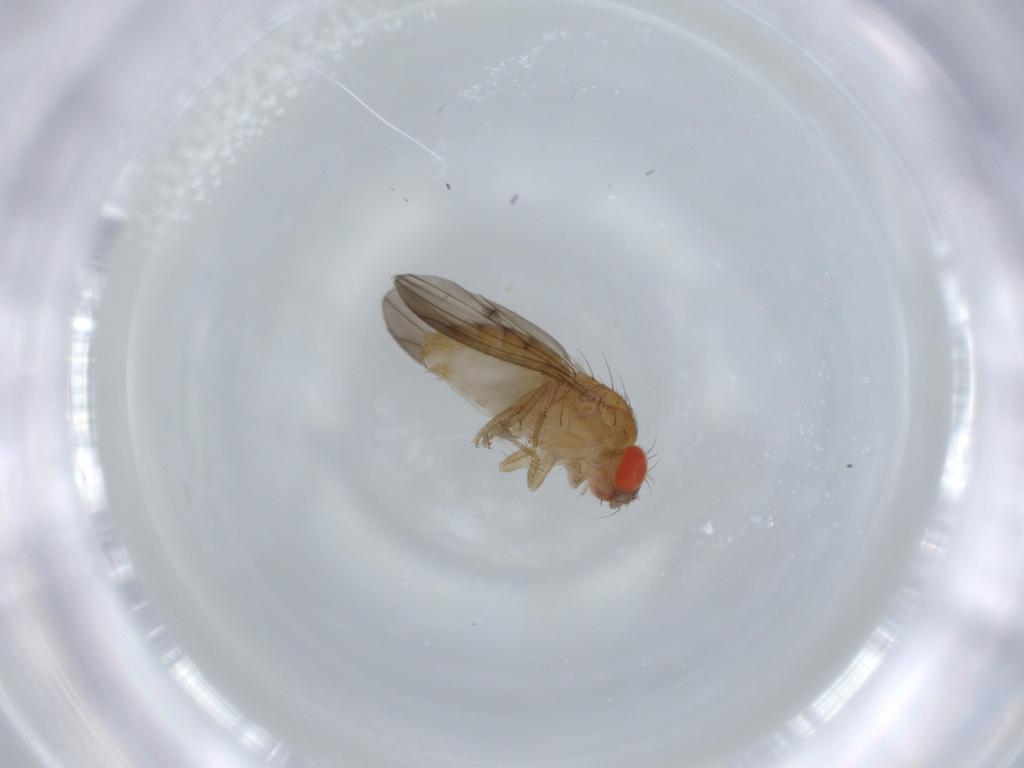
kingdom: Animalia
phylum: Arthropoda
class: Insecta
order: Diptera
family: Drosophilidae
